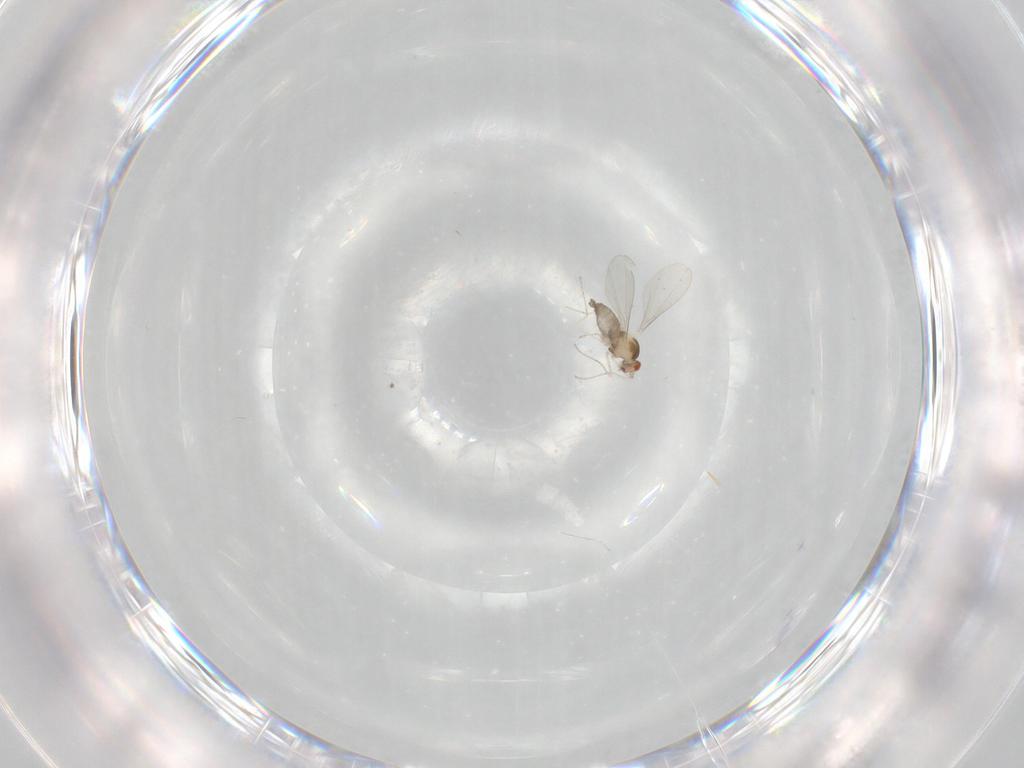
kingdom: Animalia
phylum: Arthropoda
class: Insecta
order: Diptera
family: Cecidomyiidae
